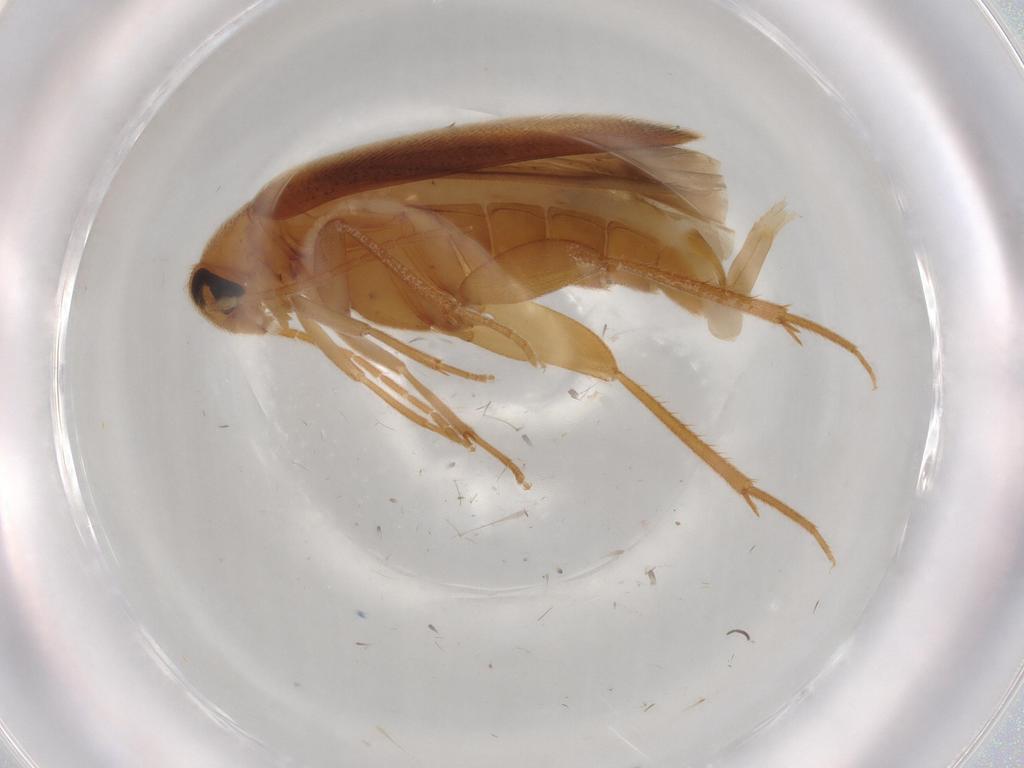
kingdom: Animalia
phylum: Arthropoda
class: Insecta
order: Coleoptera
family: Scraptiidae
